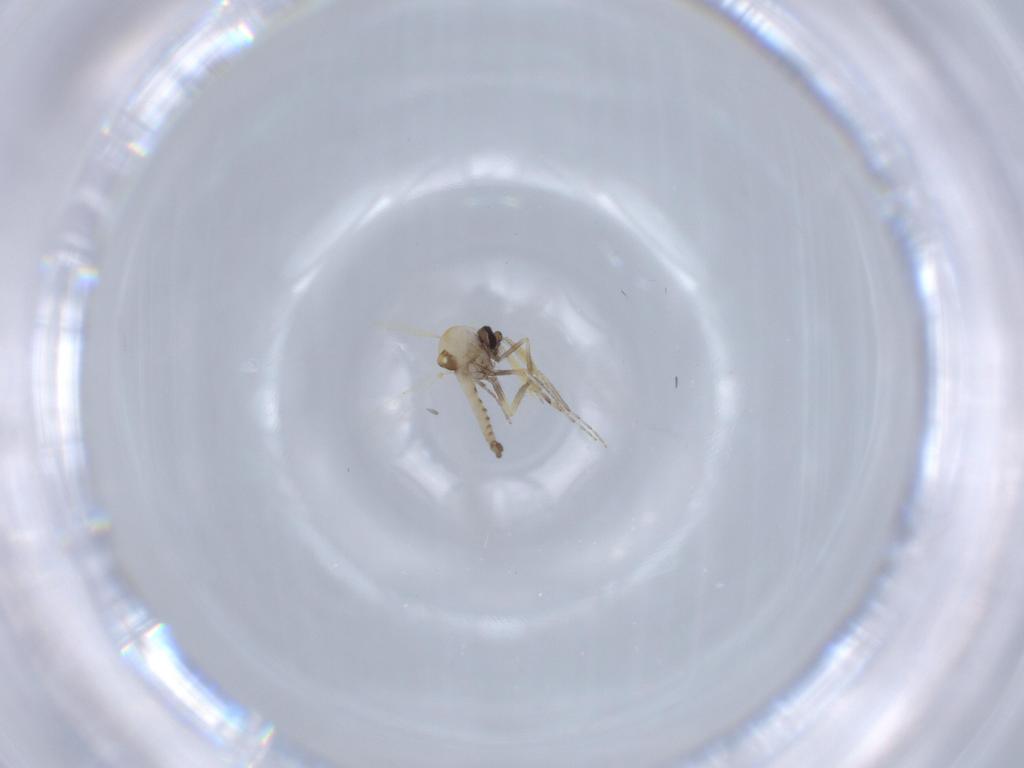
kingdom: Animalia
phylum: Arthropoda
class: Insecta
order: Diptera
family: Ceratopogonidae
